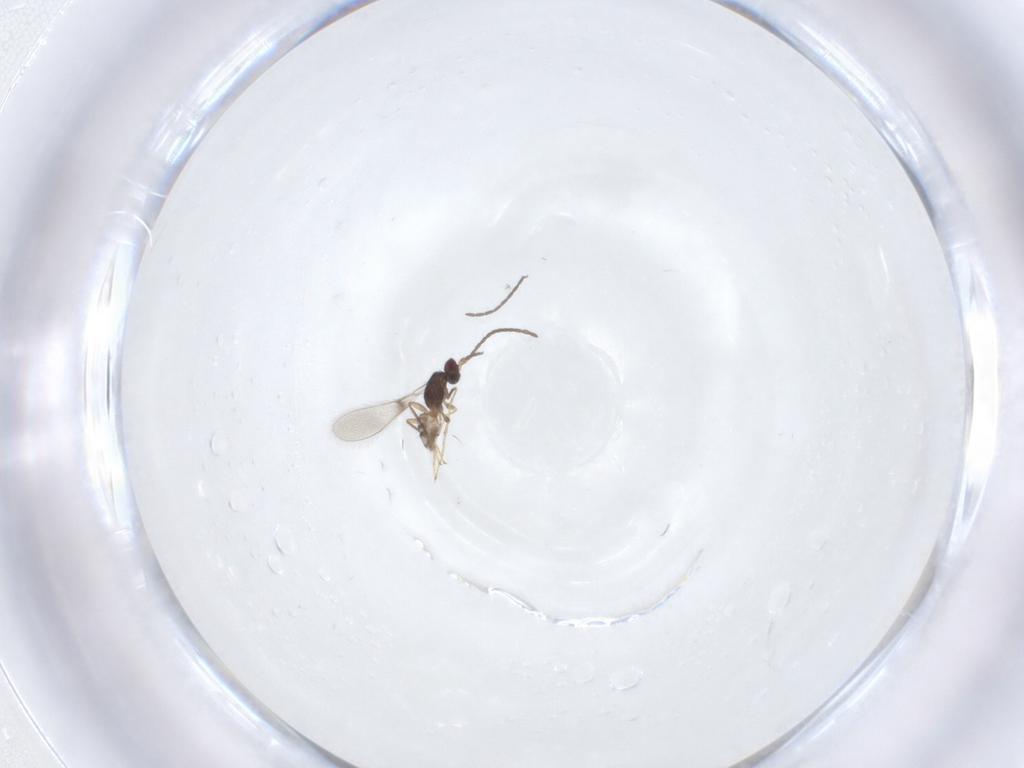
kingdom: Animalia
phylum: Arthropoda
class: Insecta
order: Hymenoptera
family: Mymaridae
